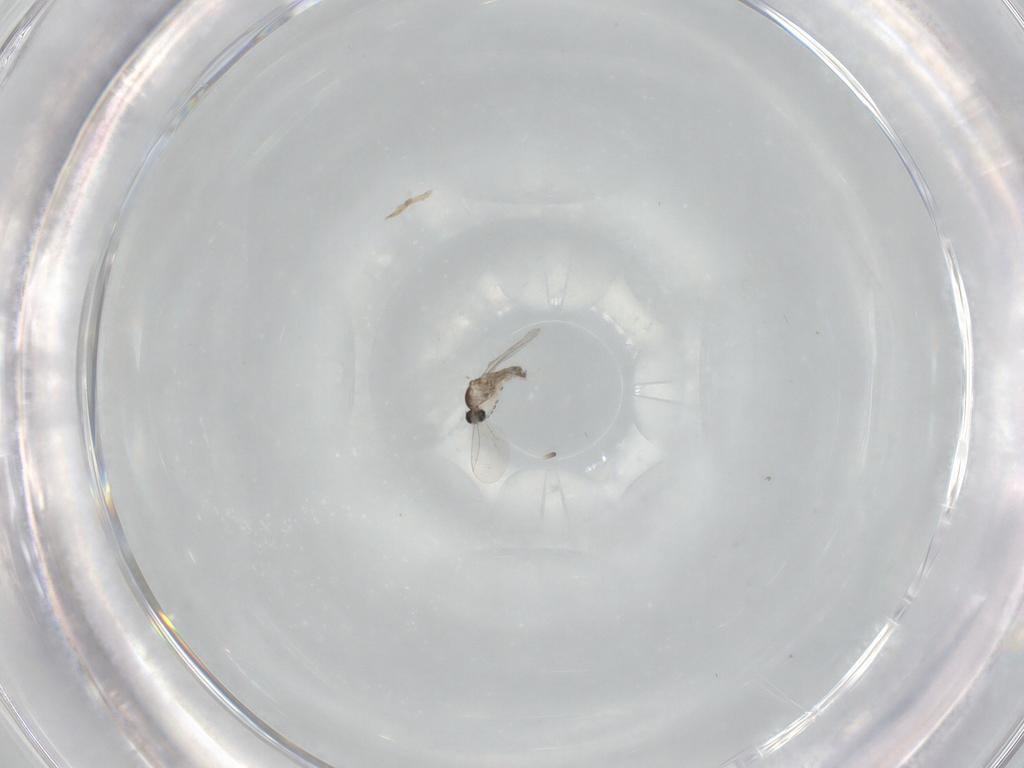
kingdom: Animalia
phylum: Arthropoda
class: Insecta
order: Diptera
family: Cecidomyiidae
